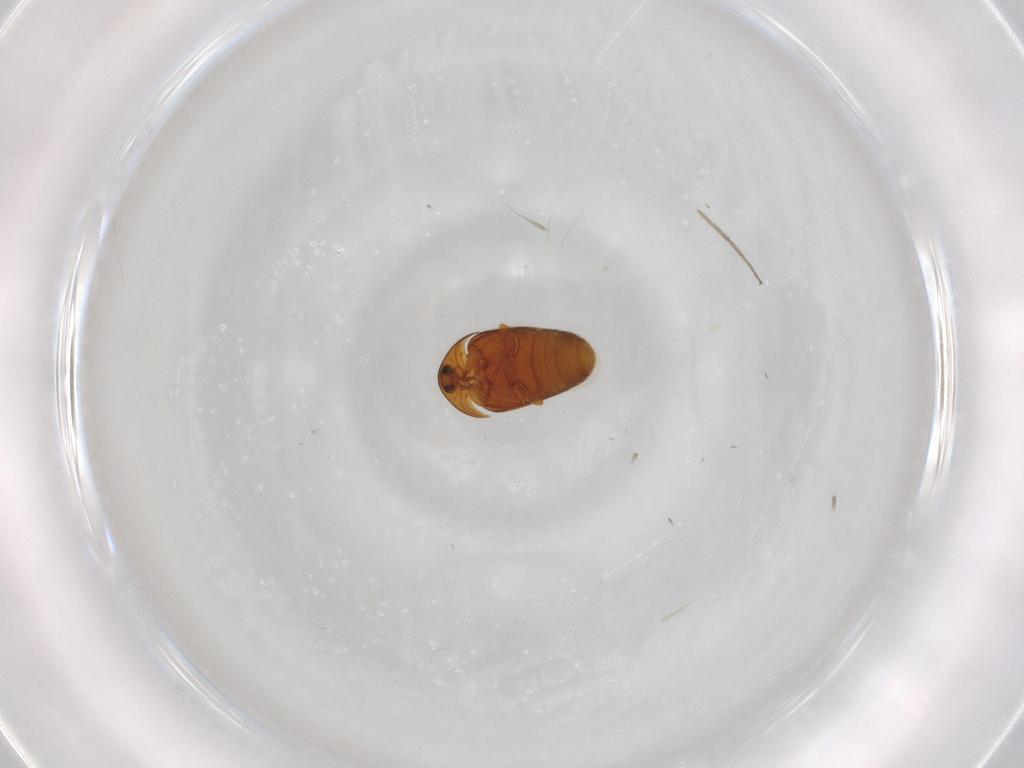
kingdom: Animalia
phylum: Arthropoda
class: Insecta
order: Coleoptera
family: Corylophidae
